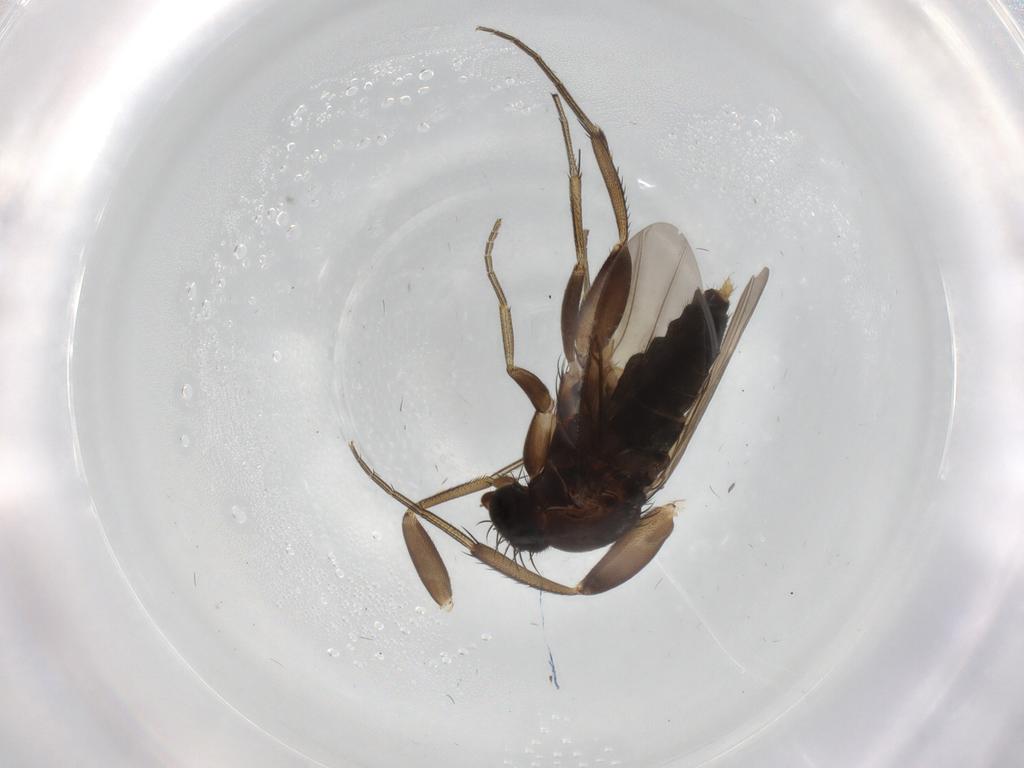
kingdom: Animalia
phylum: Arthropoda
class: Insecta
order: Diptera
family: Phoridae
